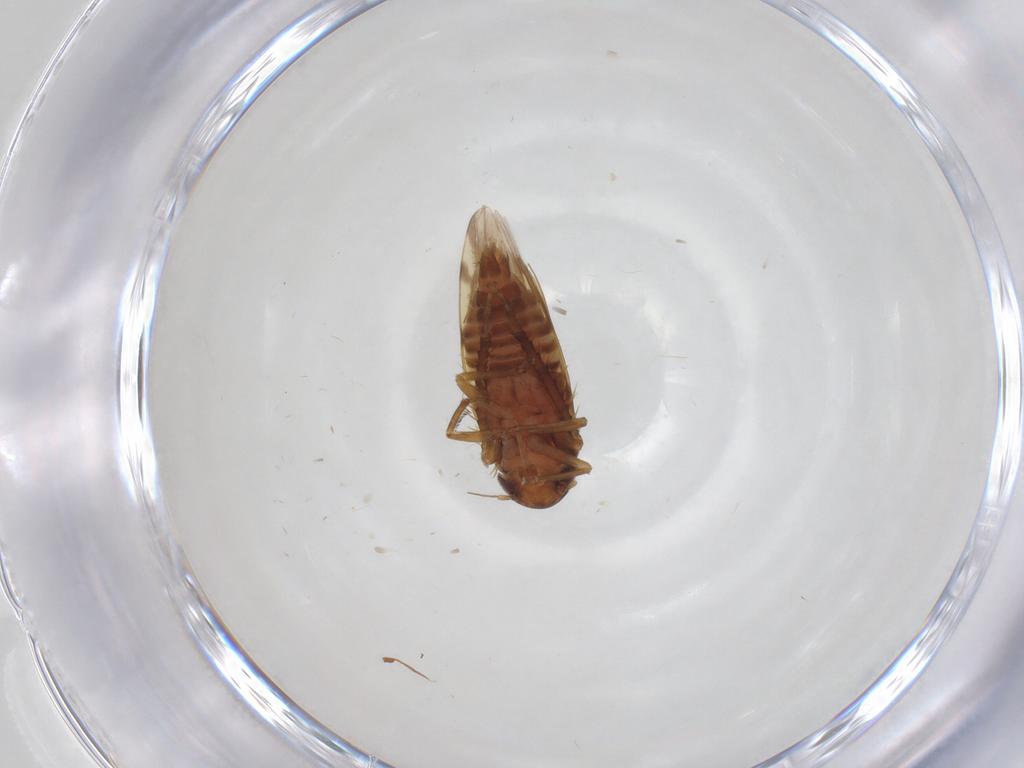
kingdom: Animalia
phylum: Arthropoda
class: Insecta
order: Hemiptera
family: Cicadellidae
